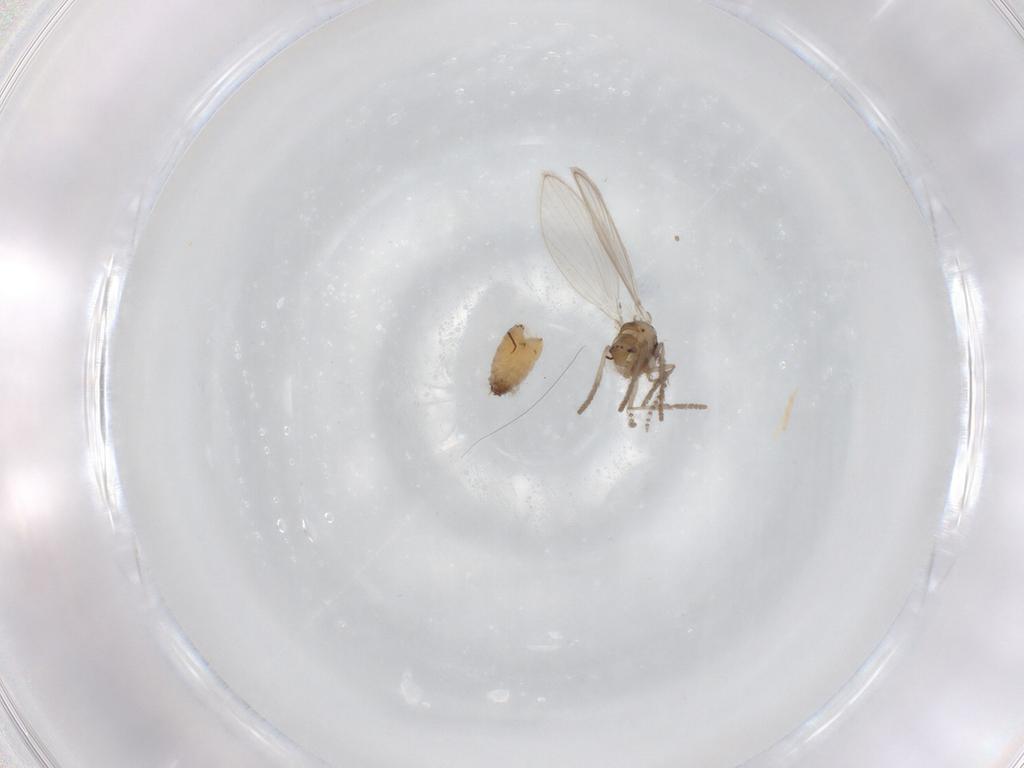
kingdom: Animalia
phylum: Arthropoda
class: Insecta
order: Diptera
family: Psychodidae
